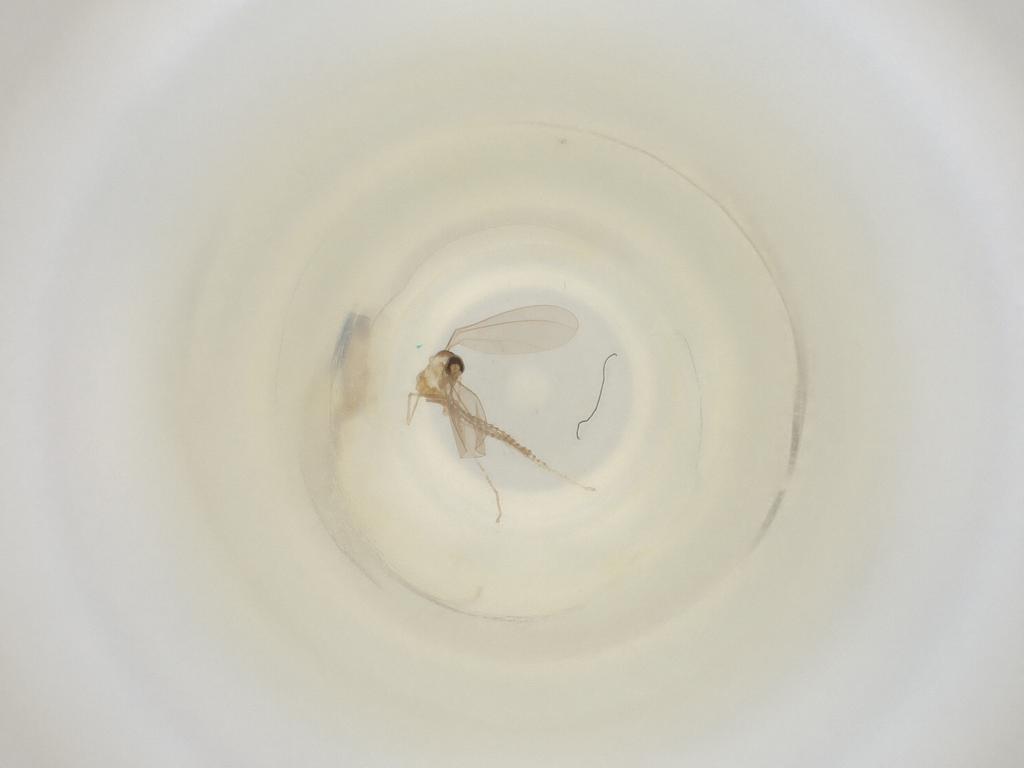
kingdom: Animalia
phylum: Arthropoda
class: Insecta
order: Diptera
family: Cecidomyiidae
